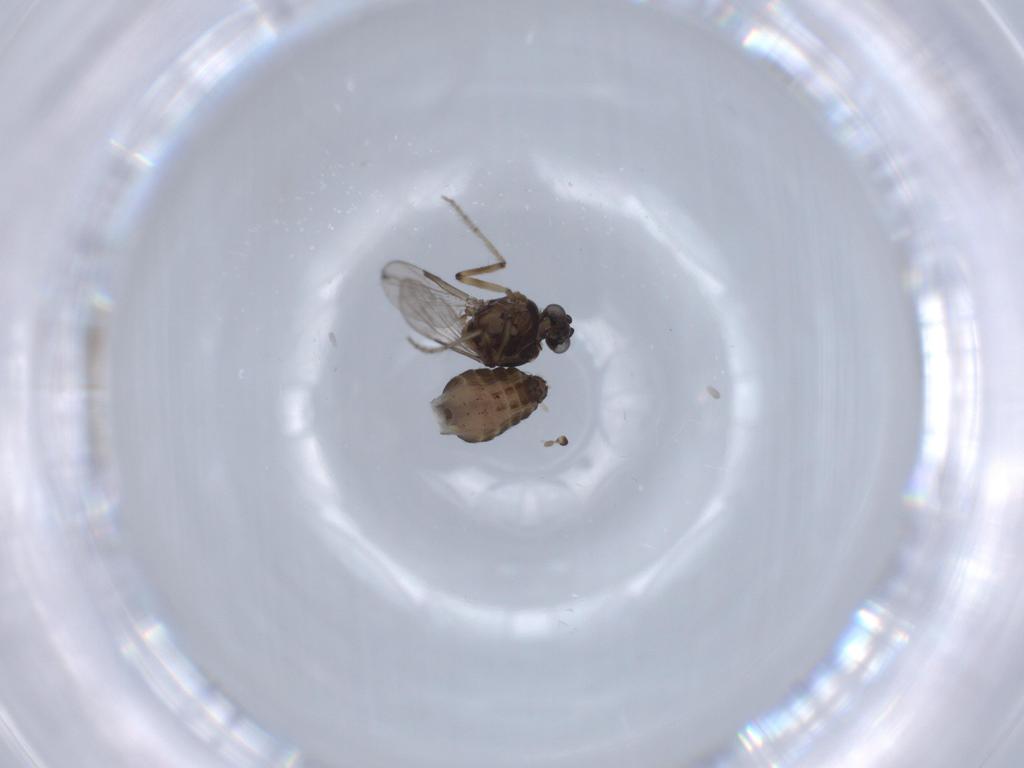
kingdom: Animalia
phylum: Arthropoda
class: Insecta
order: Diptera
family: Ceratopogonidae
